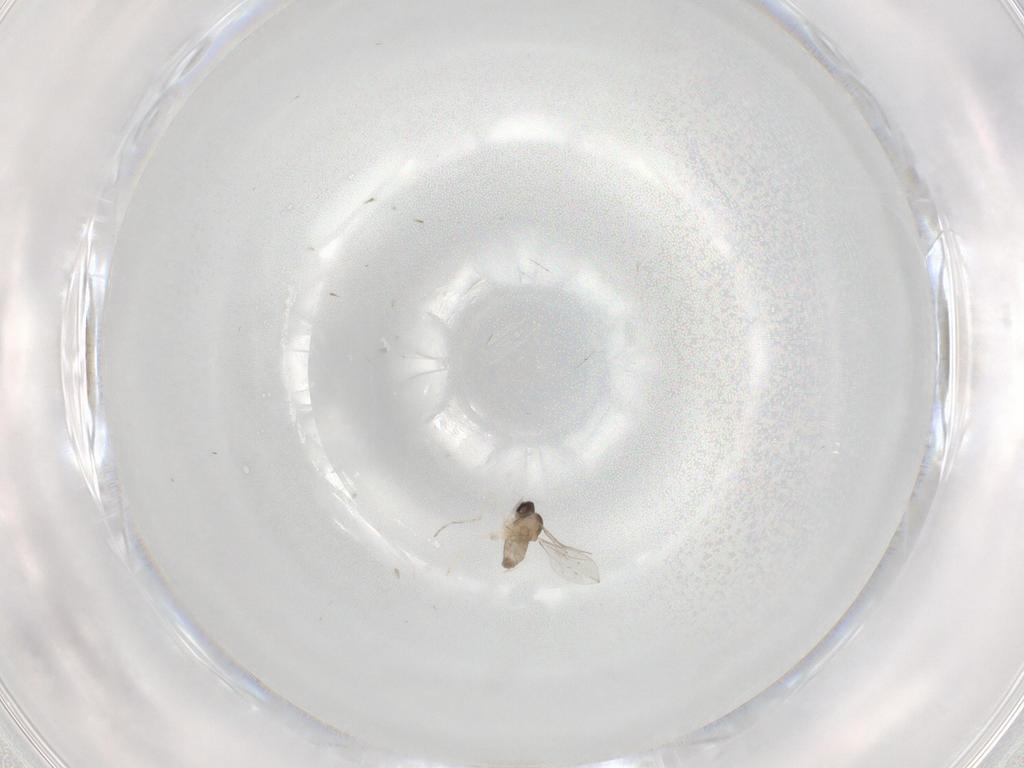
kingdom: Animalia
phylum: Arthropoda
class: Insecta
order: Diptera
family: Cecidomyiidae
